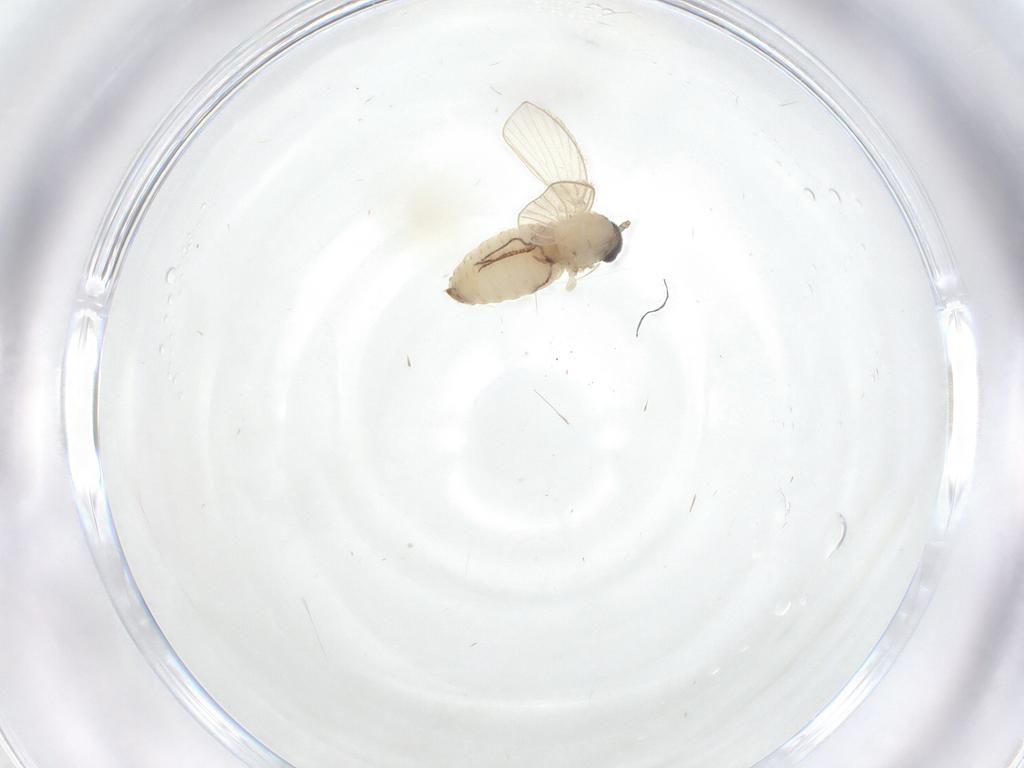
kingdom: Animalia
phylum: Arthropoda
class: Insecta
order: Diptera
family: Psychodidae
